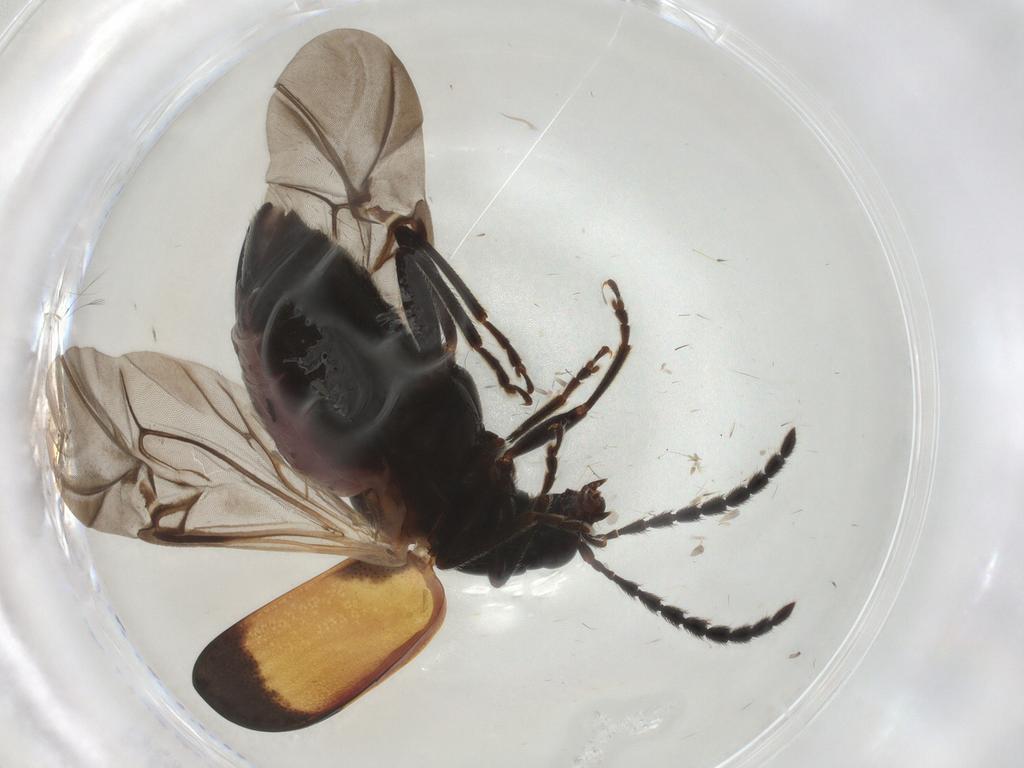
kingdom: Animalia
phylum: Arthropoda
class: Insecta
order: Coleoptera
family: Chrysomelidae
